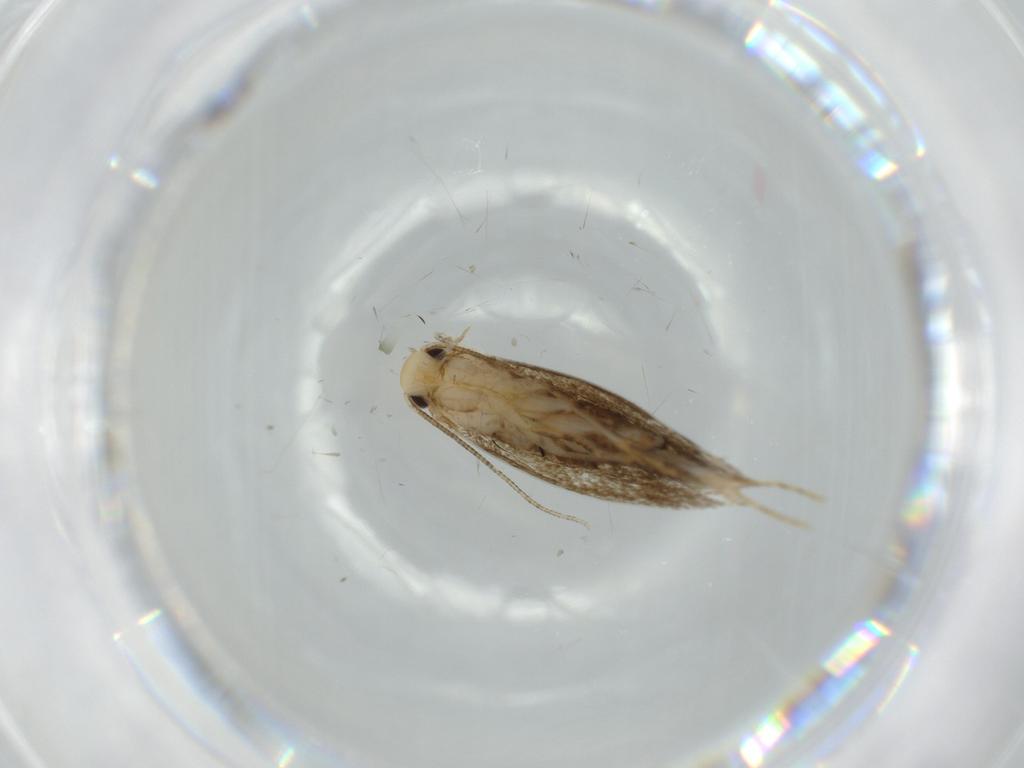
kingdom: Animalia
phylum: Arthropoda
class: Insecta
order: Lepidoptera
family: Tineidae
